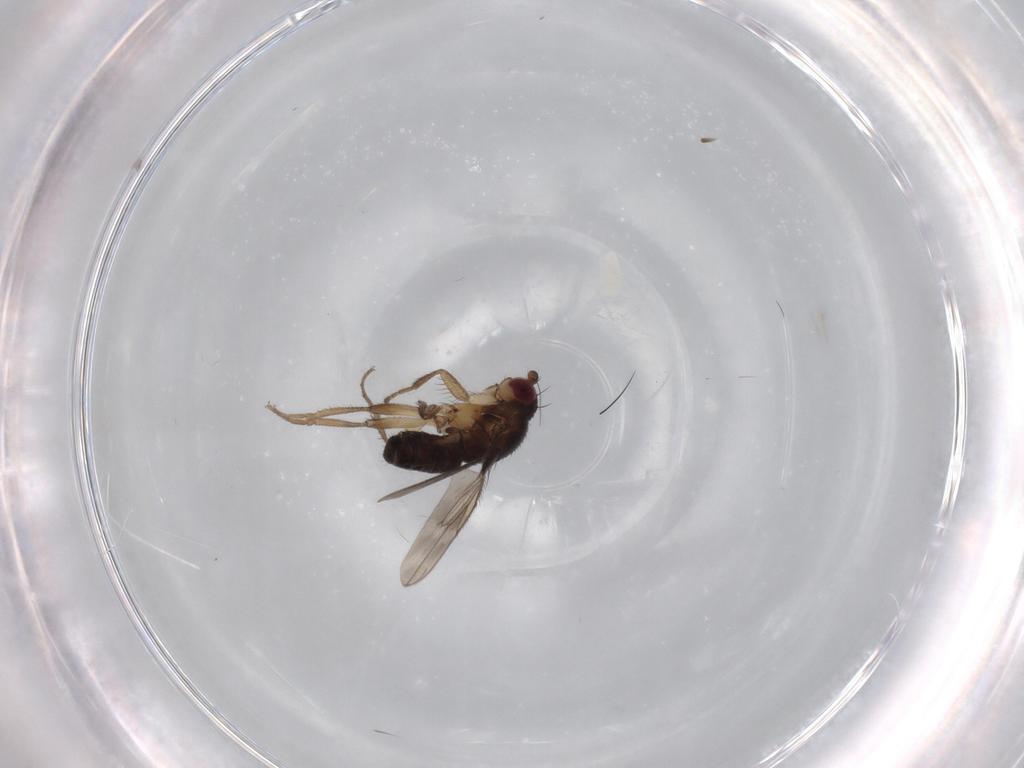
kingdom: Animalia
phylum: Arthropoda
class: Insecta
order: Diptera
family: Sphaeroceridae
